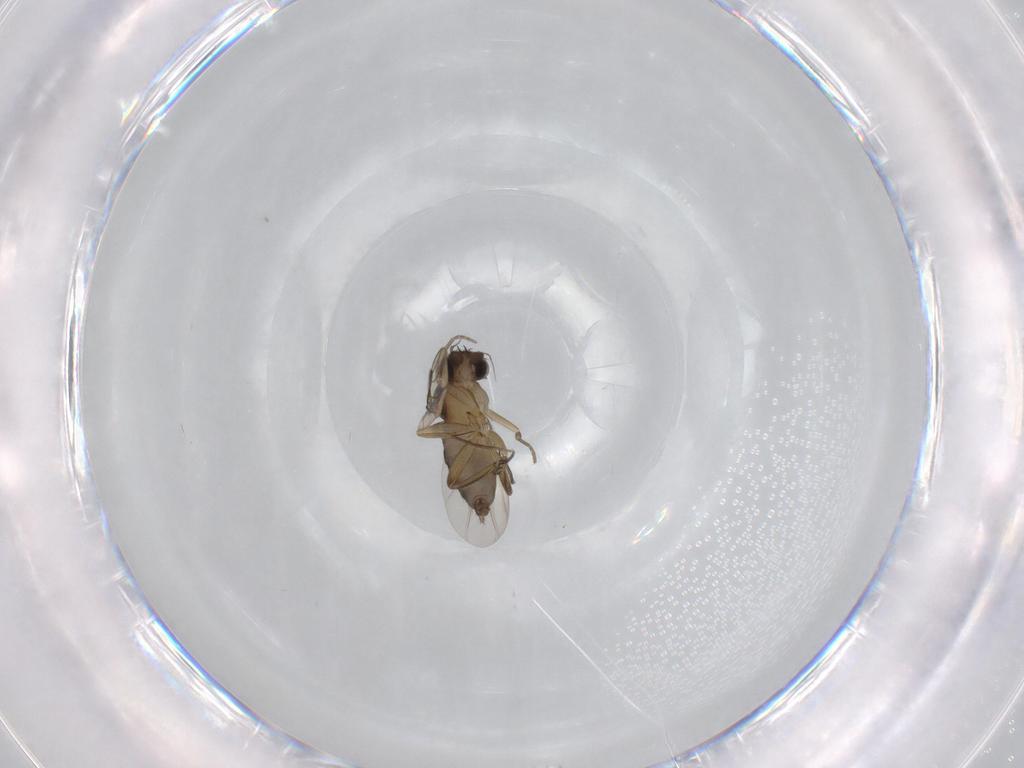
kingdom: Animalia
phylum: Arthropoda
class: Insecta
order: Diptera
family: Phoridae
